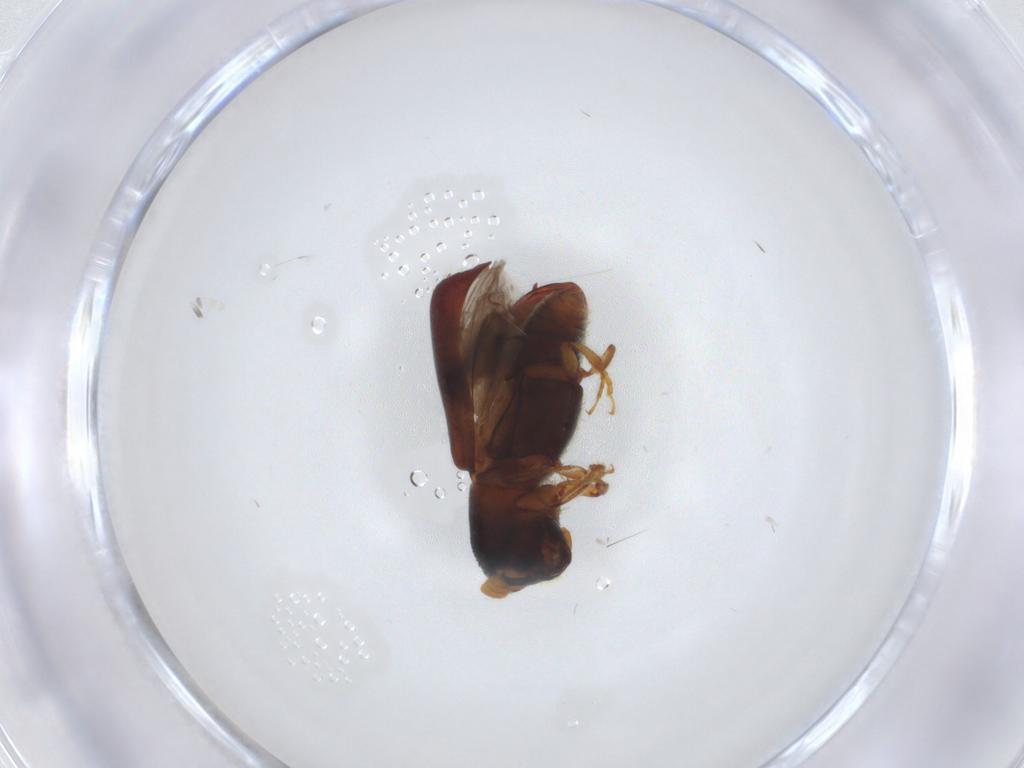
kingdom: Animalia
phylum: Arthropoda
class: Insecta
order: Coleoptera
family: Curculionidae
